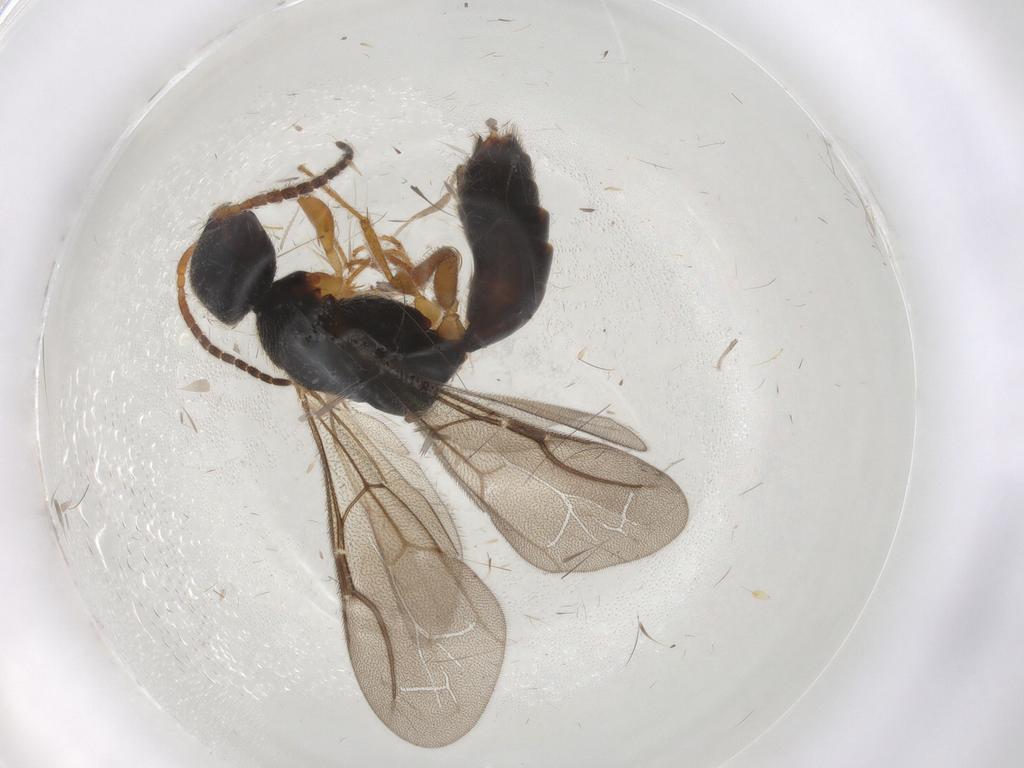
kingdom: Animalia
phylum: Arthropoda
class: Insecta
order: Hymenoptera
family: Bethylidae
